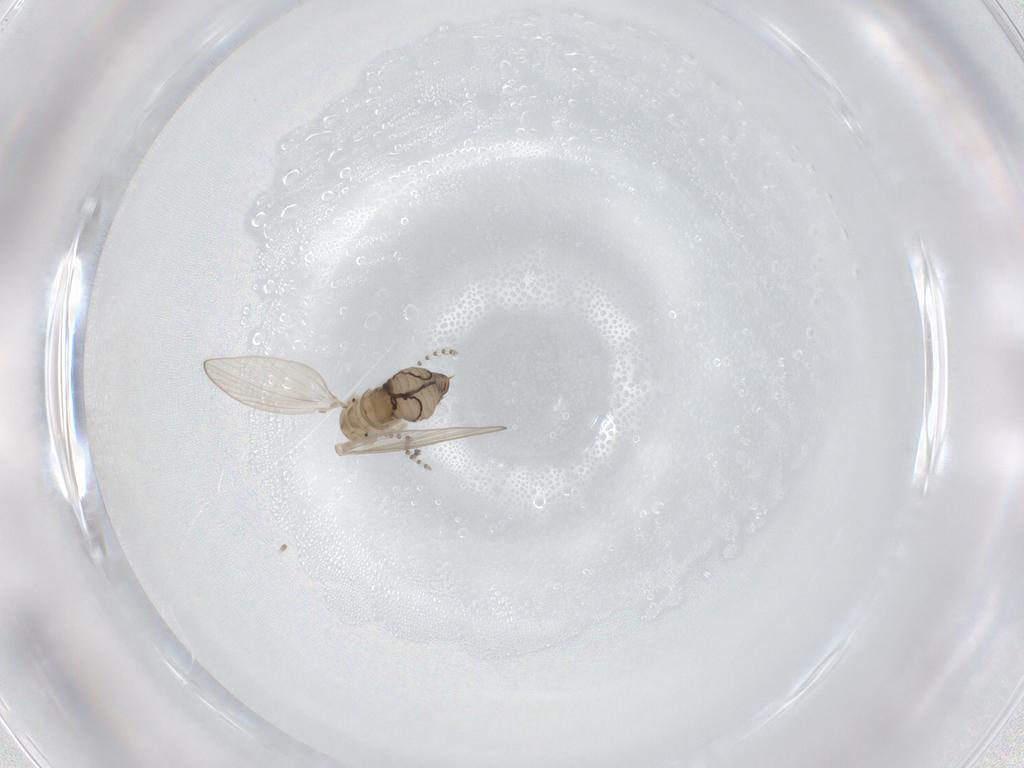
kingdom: Animalia
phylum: Arthropoda
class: Insecta
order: Diptera
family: Psychodidae
